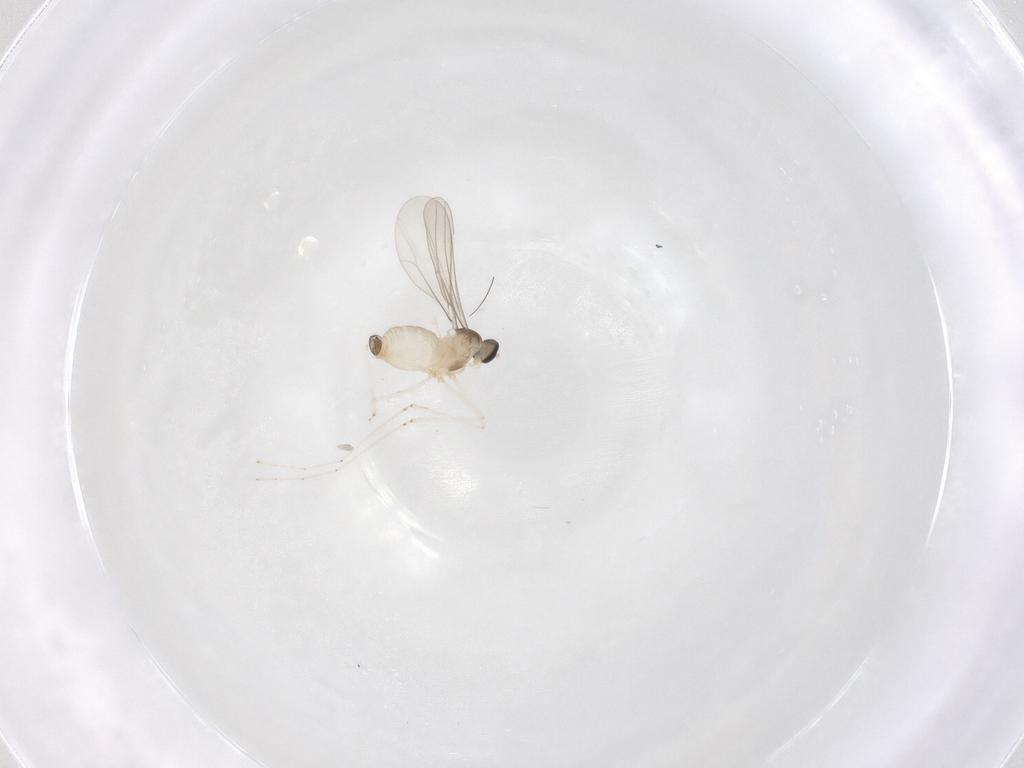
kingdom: Animalia
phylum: Arthropoda
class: Insecta
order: Diptera
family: Cecidomyiidae
